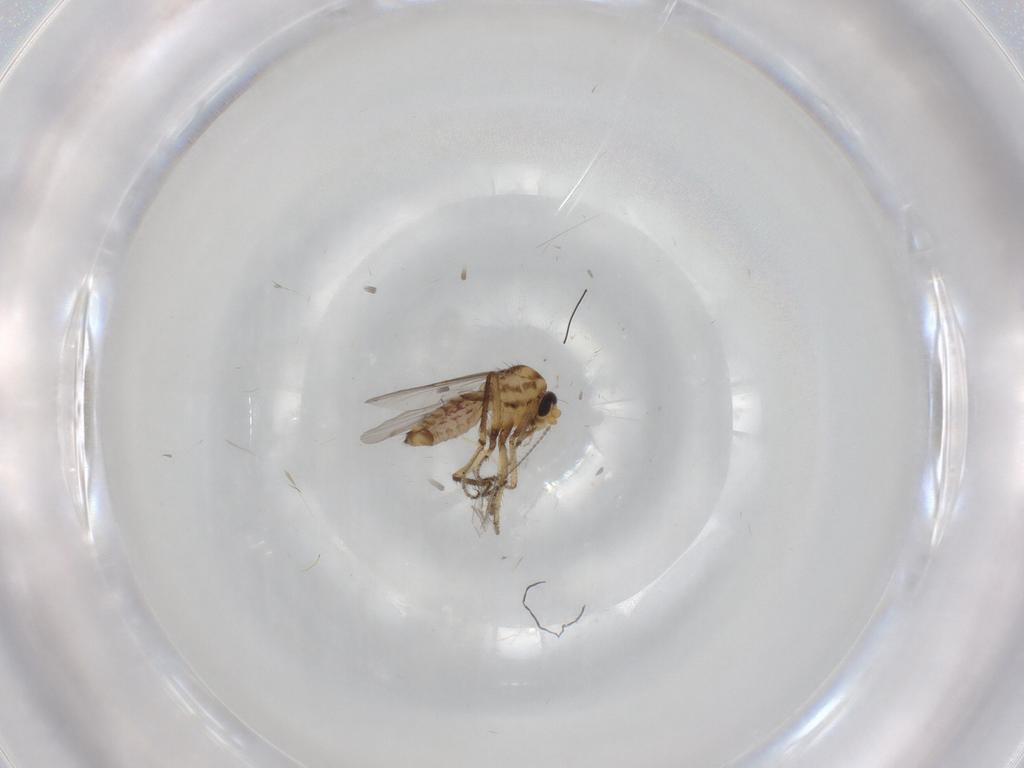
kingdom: Animalia
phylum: Arthropoda
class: Insecta
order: Diptera
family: Ceratopogonidae
